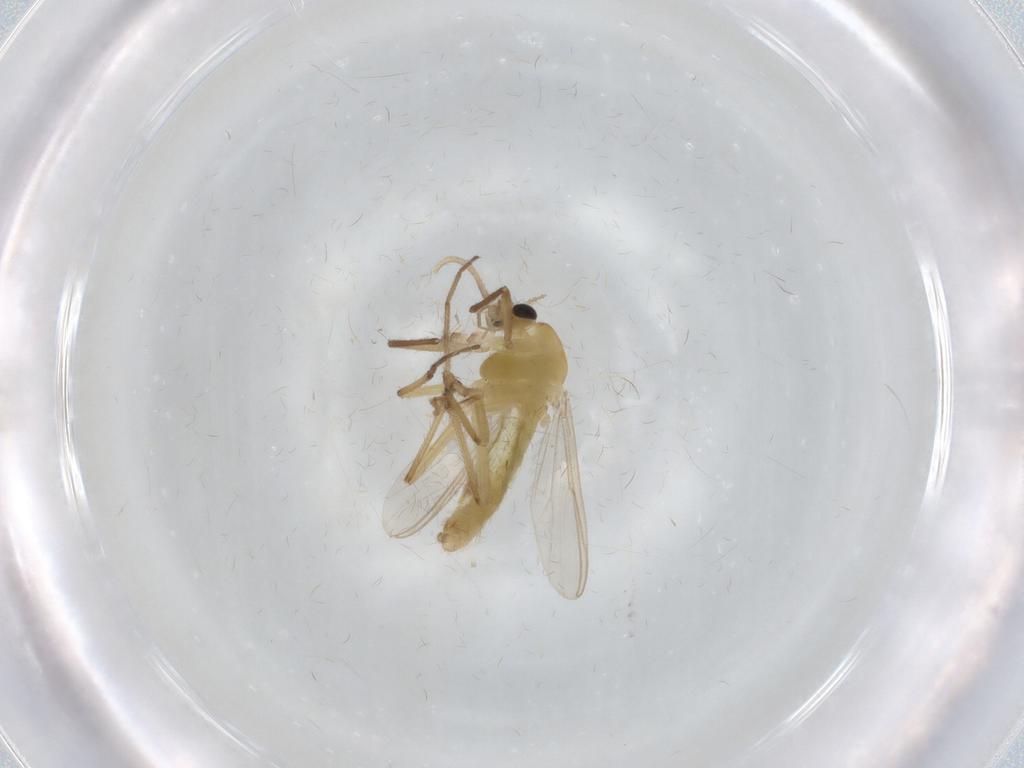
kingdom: Animalia
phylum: Arthropoda
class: Insecta
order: Diptera
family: Chironomidae
